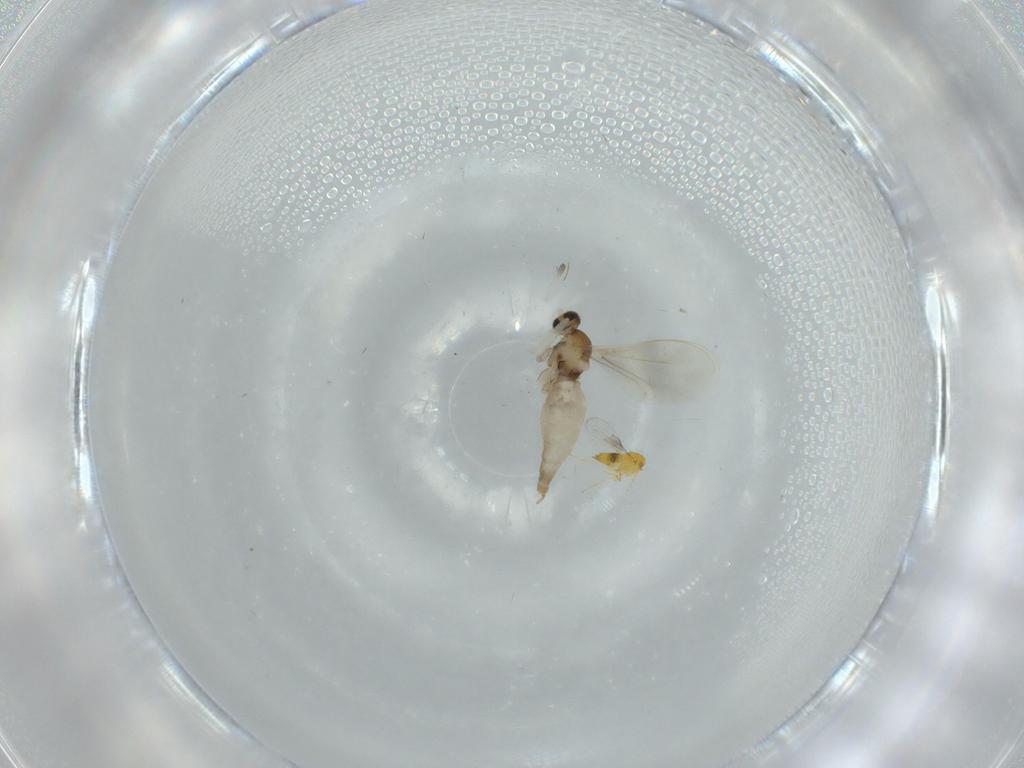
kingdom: Animalia
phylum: Arthropoda
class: Insecta
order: Hymenoptera
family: Trichogrammatidae
